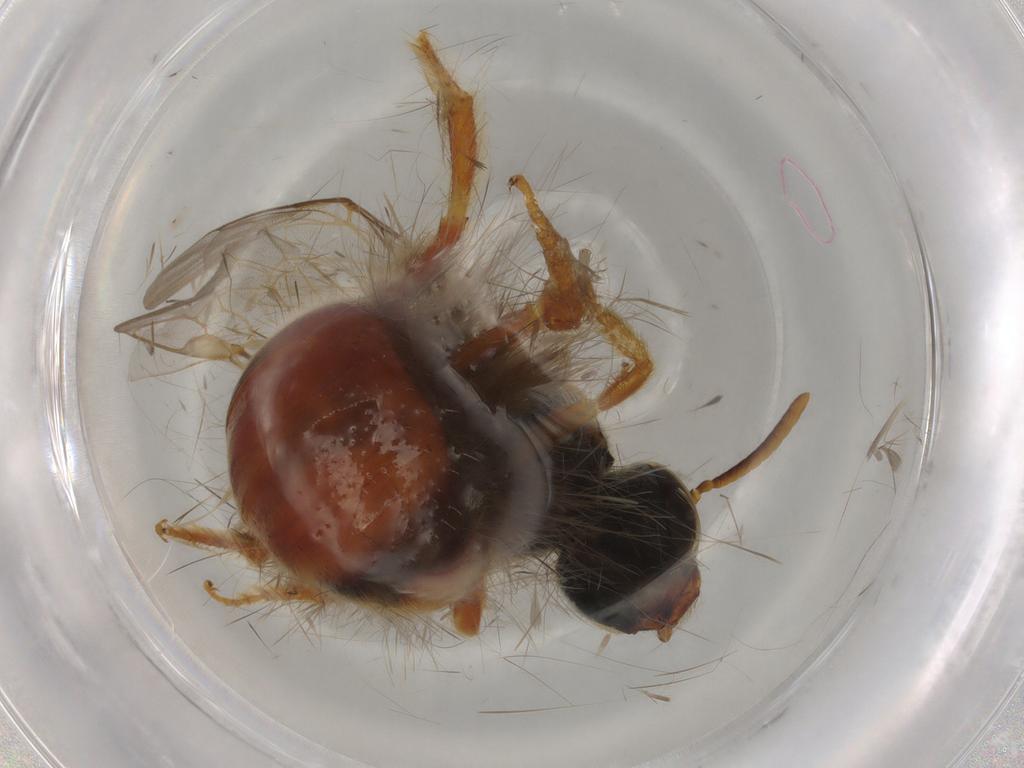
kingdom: Animalia
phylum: Arthropoda
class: Insecta
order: Hymenoptera
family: Halictidae
